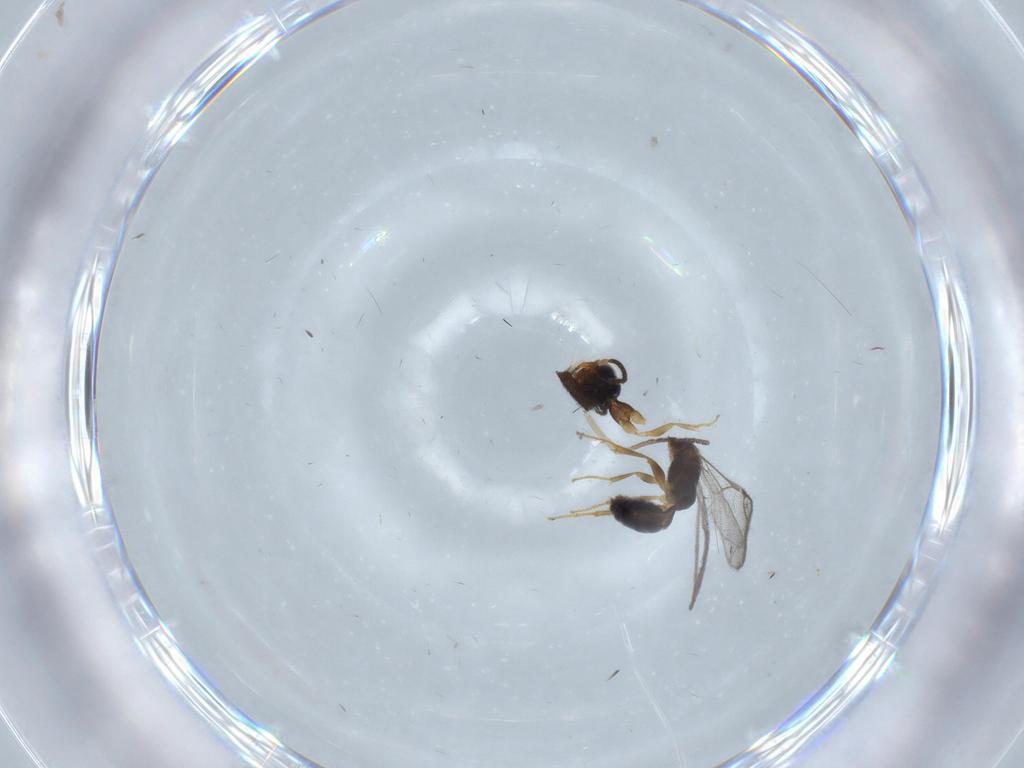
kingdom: Animalia
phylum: Arthropoda
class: Insecta
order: Hymenoptera
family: Bethylidae
